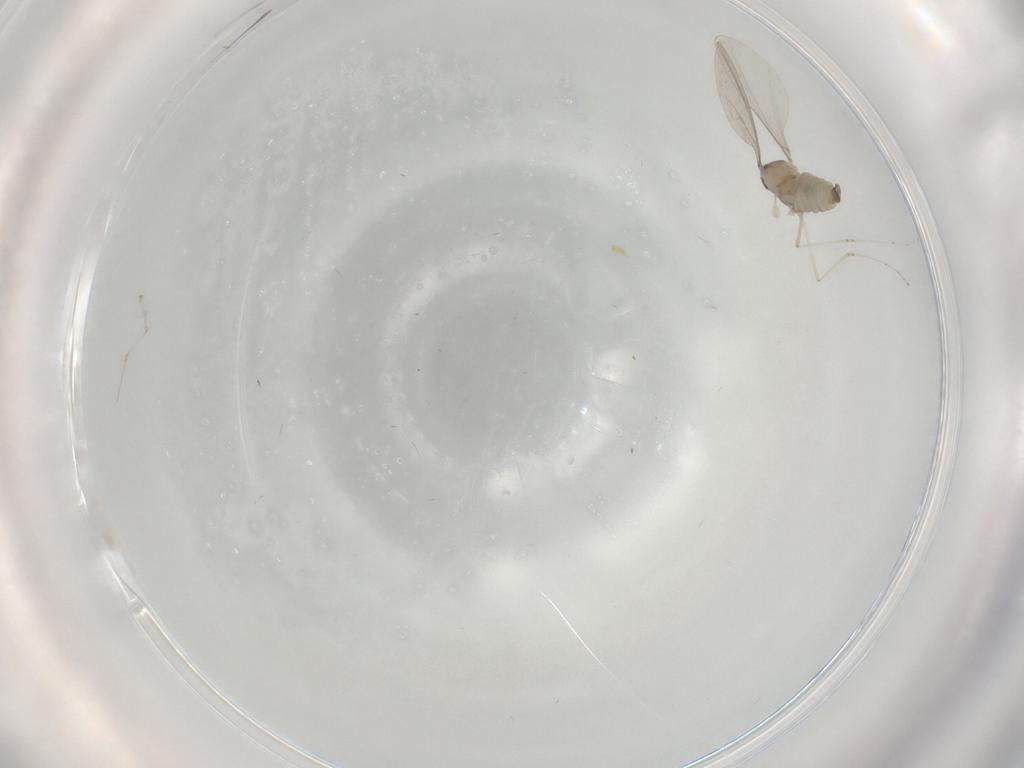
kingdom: Animalia
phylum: Arthropoda
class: Insecta
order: Diptera
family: Cecidomyiidae
